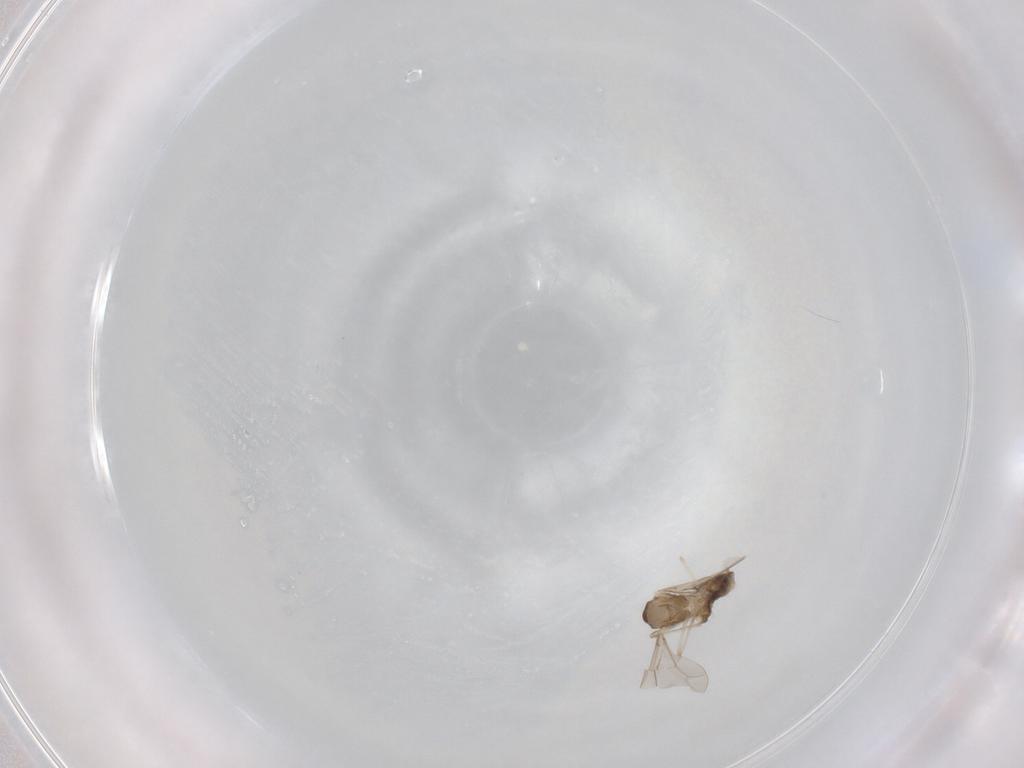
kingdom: Animalia
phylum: Arthropoda
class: Insecta
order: Diptera
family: Cecidomyiidae
